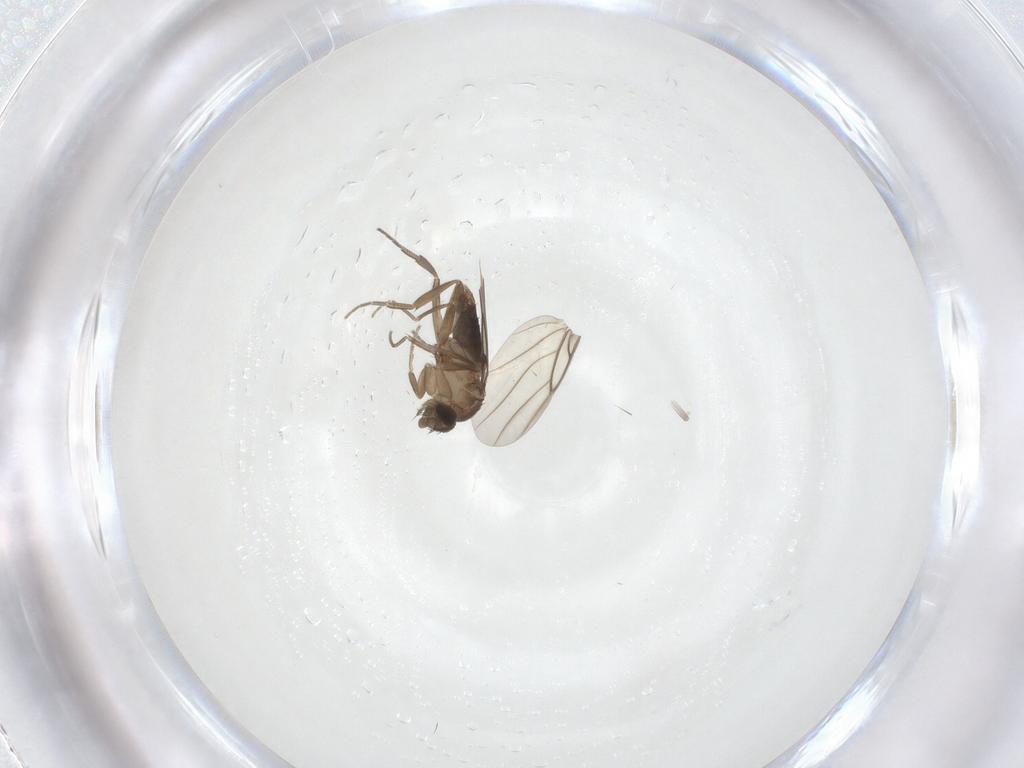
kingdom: Animalia
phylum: Arthropoda
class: Insecta
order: Diptera
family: Phoridae
